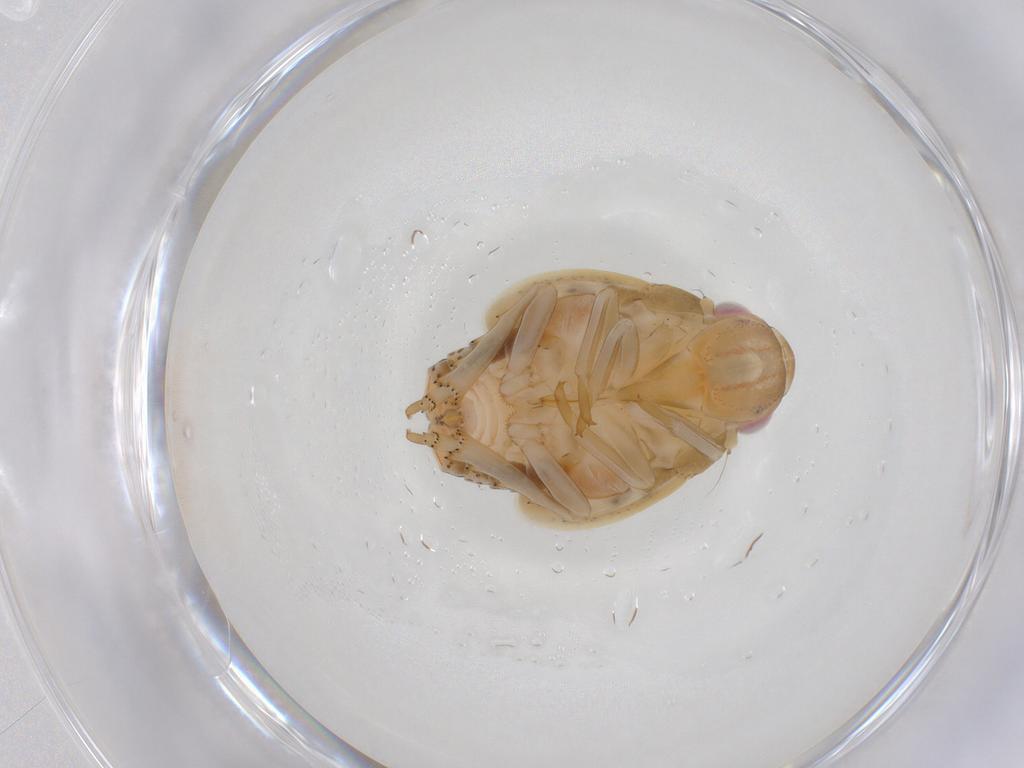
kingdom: Animalia
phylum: Arthropoda
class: Insecta
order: Hemiptera
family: Flatidae
